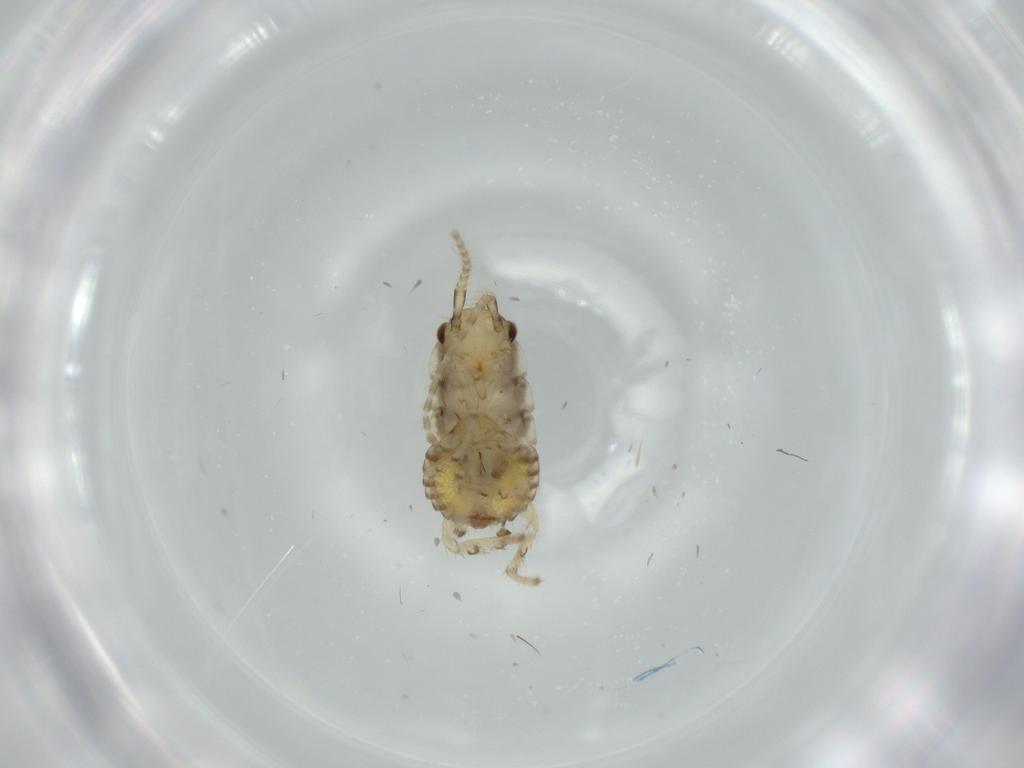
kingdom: Animalia
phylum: Arthropoda
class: Insecta
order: Blattodea
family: Ectobiidae
